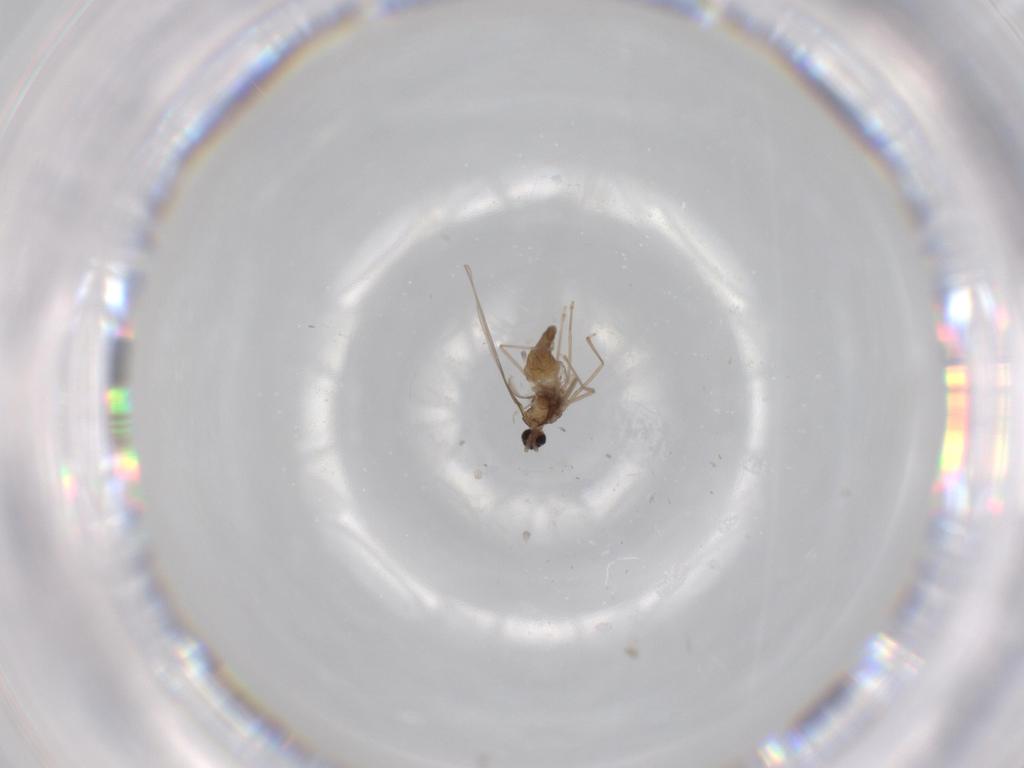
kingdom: Animalia
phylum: Arthropoda
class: Insecta
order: Diptera
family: Cecidomyiidae
